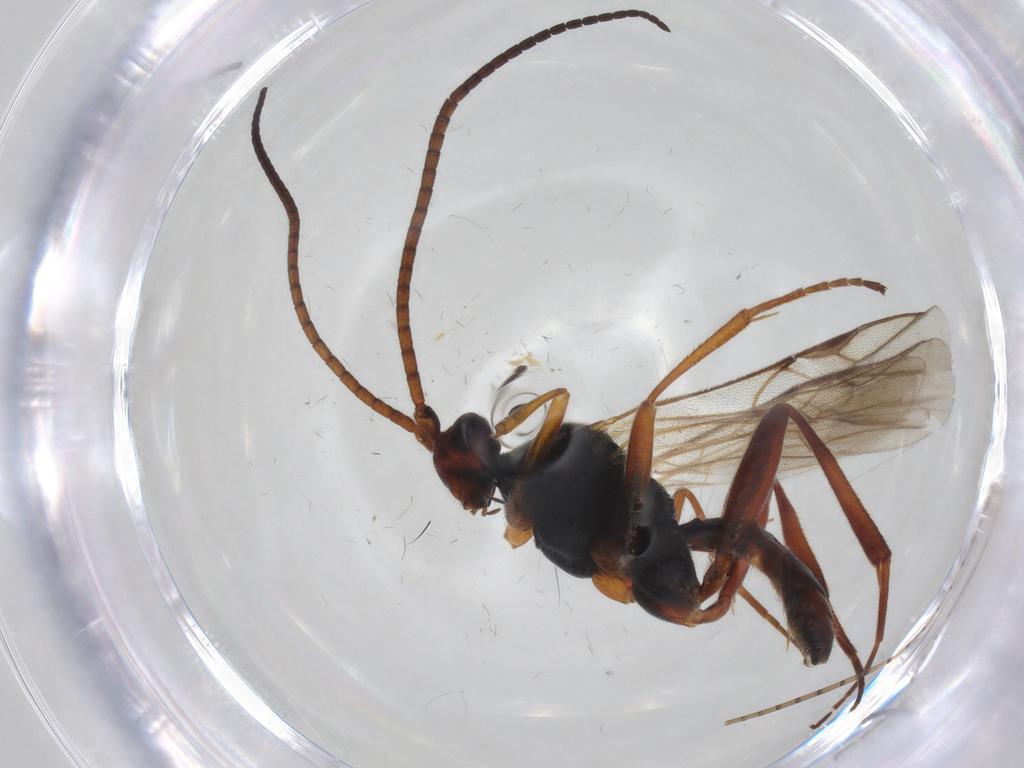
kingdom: Animalia
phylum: Arthropoda
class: Insecta
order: Hymenoptera
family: Braconidae
